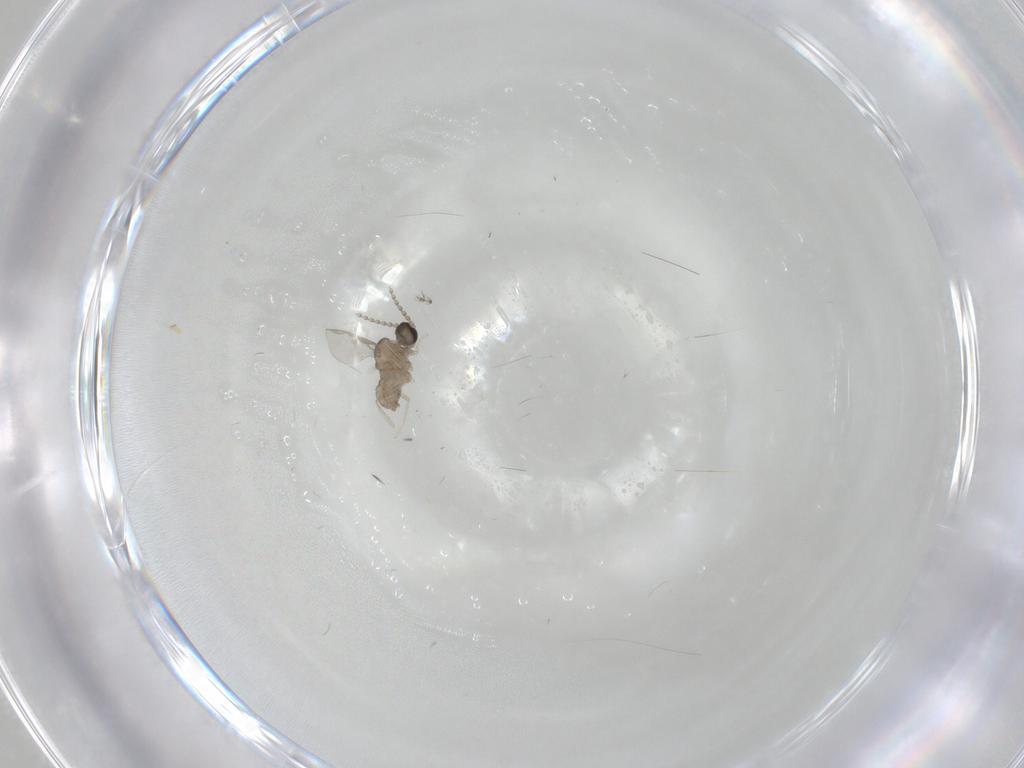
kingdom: Animalia
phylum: Arthropoda
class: Insecta
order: Diptera
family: Cecidomyiidae
